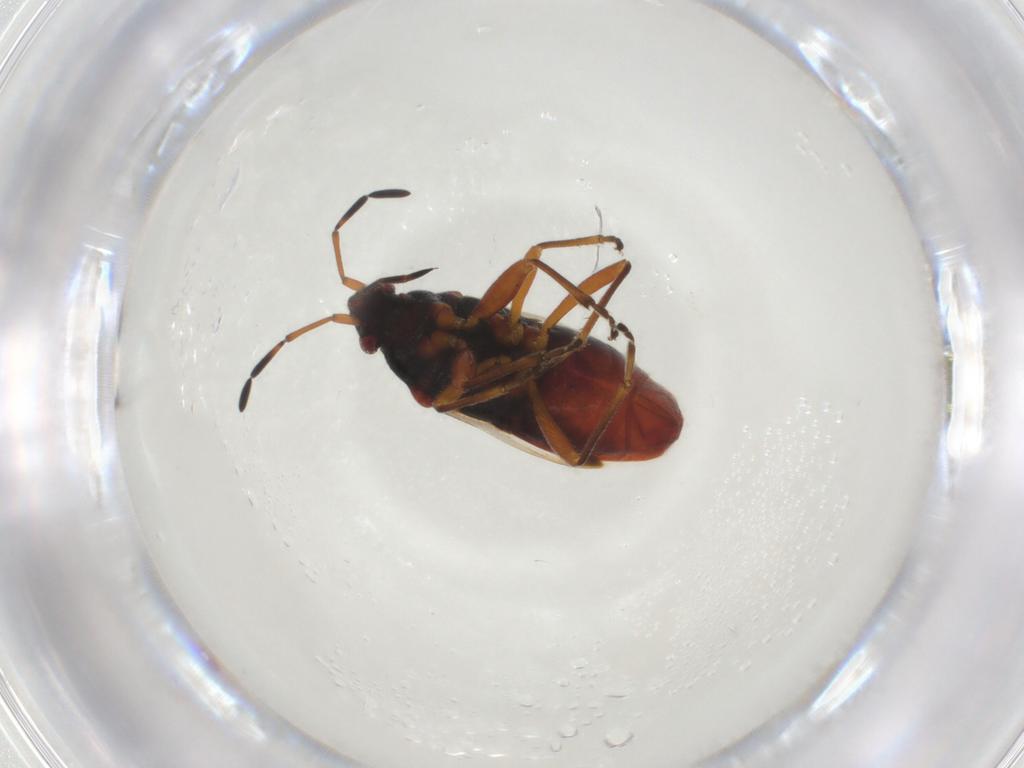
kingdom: Animalia
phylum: Arthropoda
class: Insecta
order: Hemiptera
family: Rhyparochromidae
